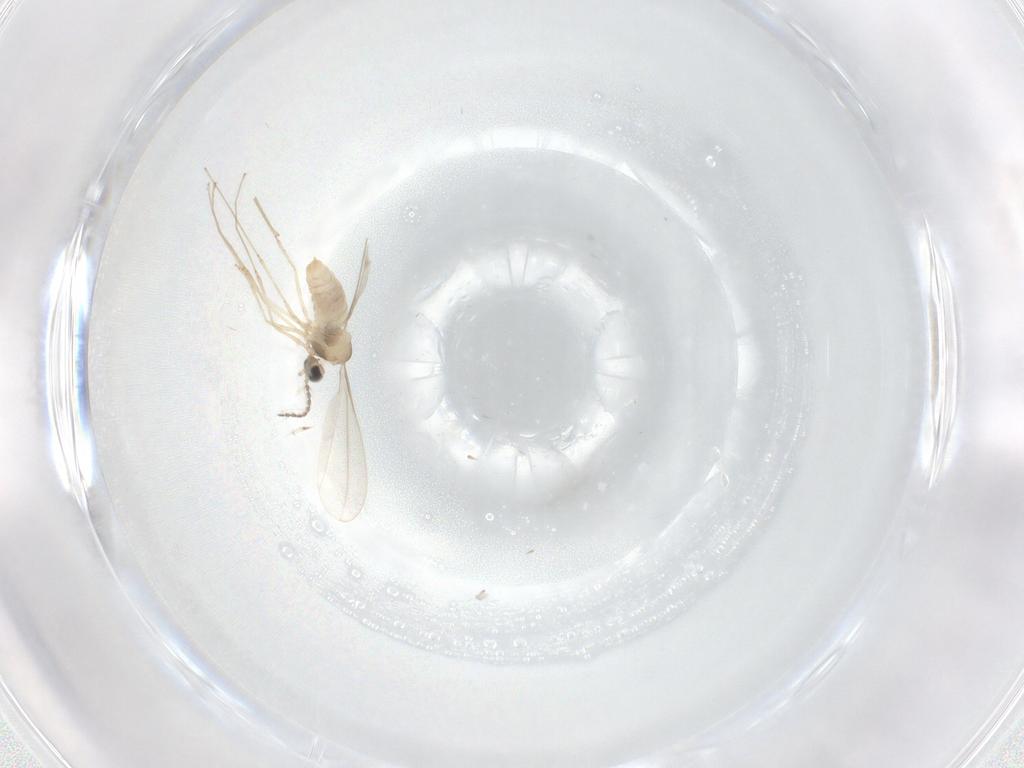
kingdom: Animalia
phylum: Arthropoda
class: Insecta
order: Diptera
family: Cecidomyiidae
